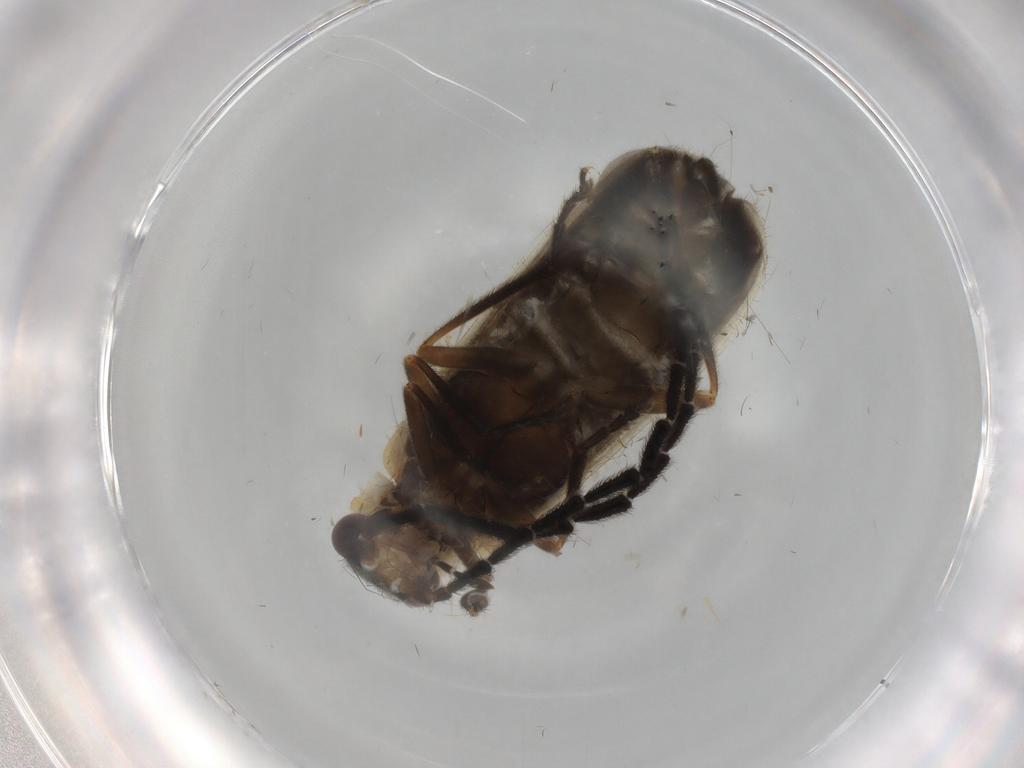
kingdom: Animalia
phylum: Arthropoda
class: Insecta
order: Coleoptera
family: Cantharidae
